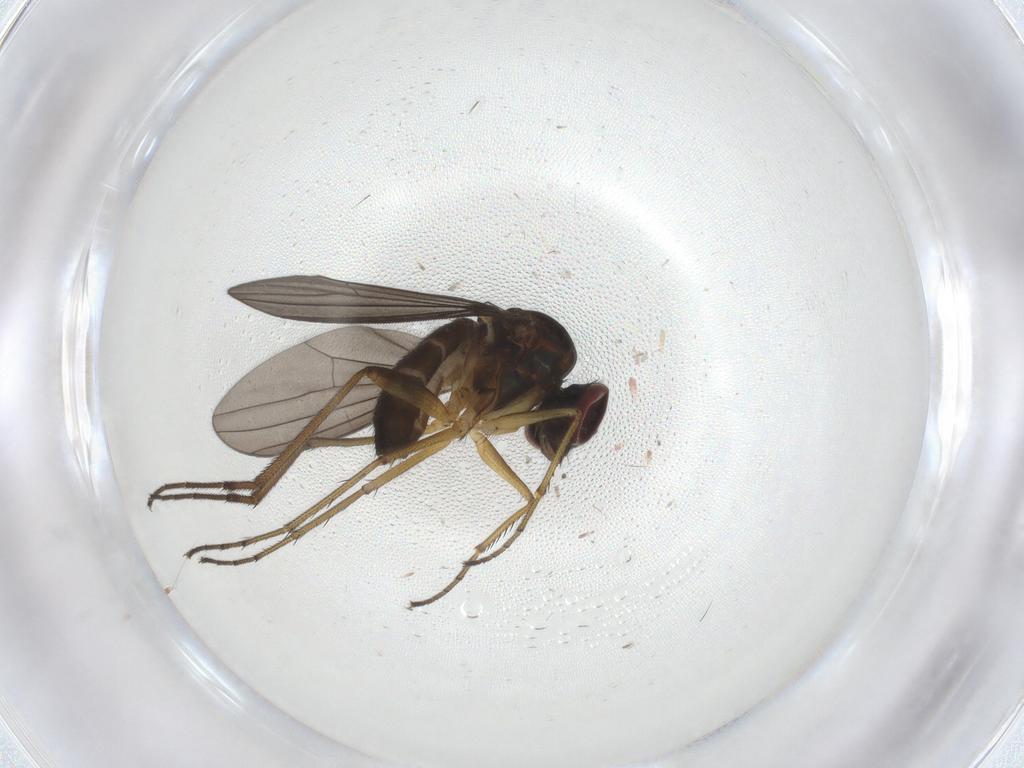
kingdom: Animalia
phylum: Arthropoda
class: Insecta
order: Diptera
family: Dolichopodidae
